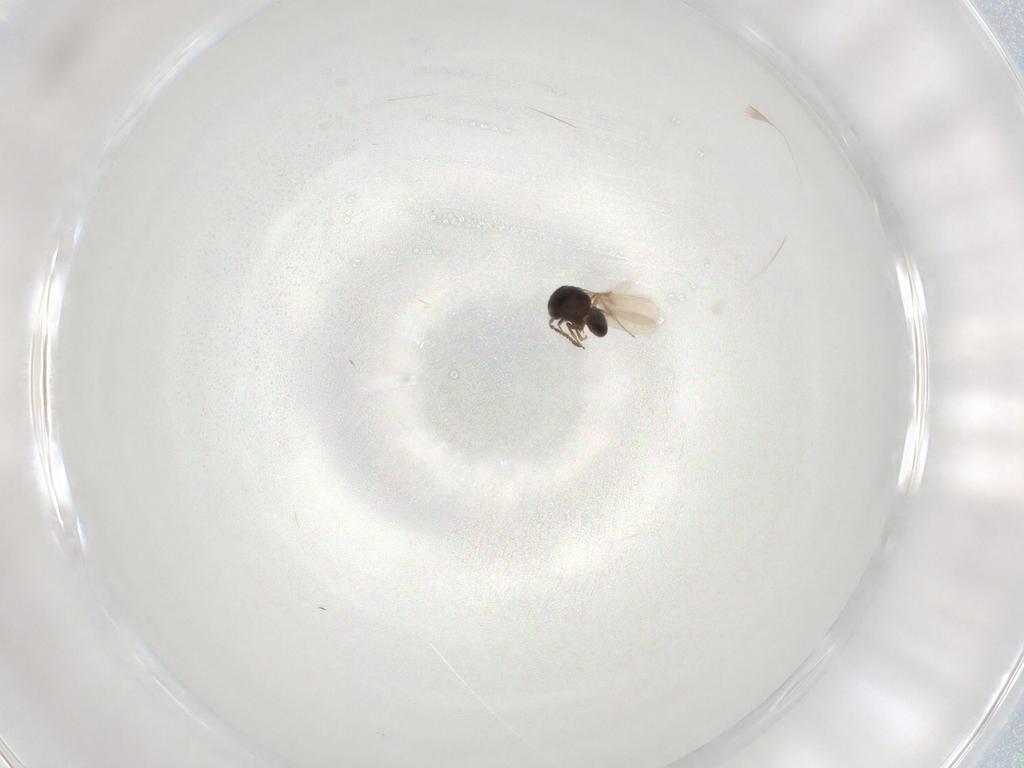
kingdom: Animalia
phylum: Arthropoda
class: Insecta
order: Hymenoptera
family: Scelionidae
